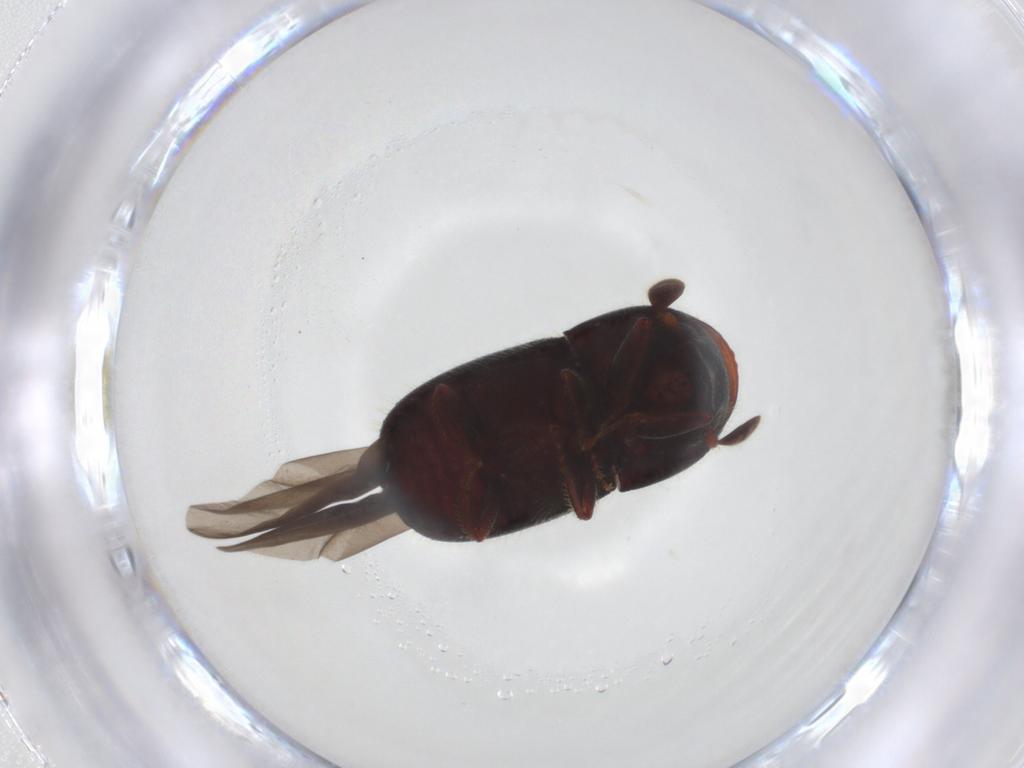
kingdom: Animalia
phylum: Arthropoda
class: Insecta
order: Coleoptera
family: Curculionidae
